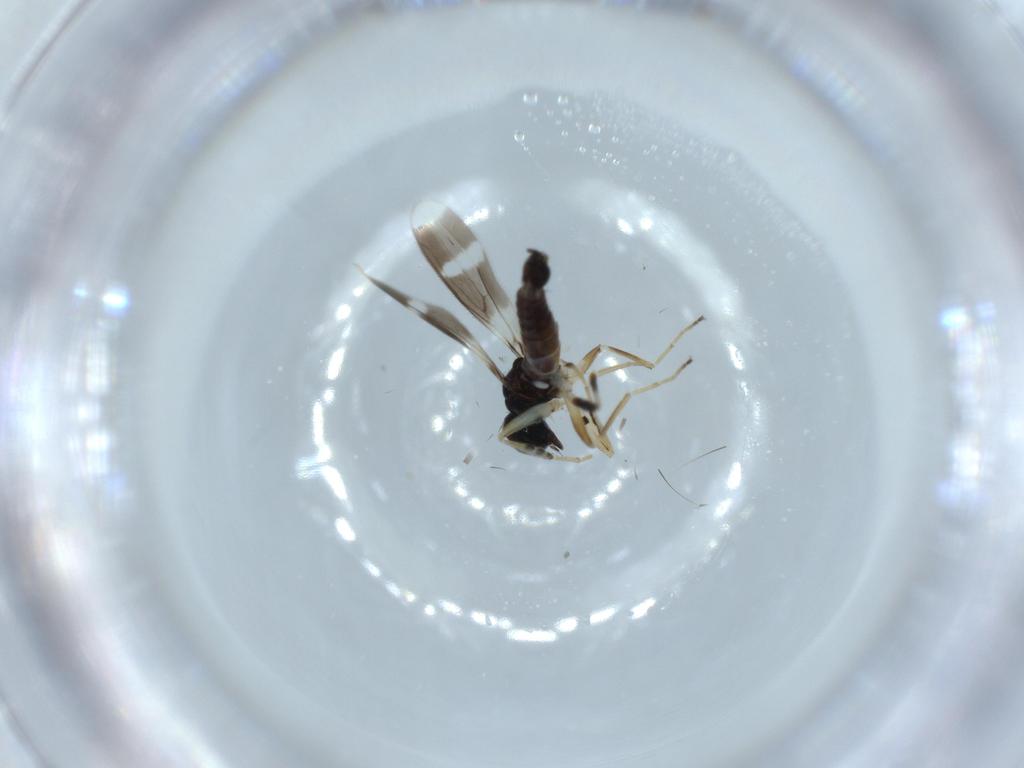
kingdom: Animalia
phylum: Arthropoda
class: Insecta
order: Diptera
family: Hybotidae
